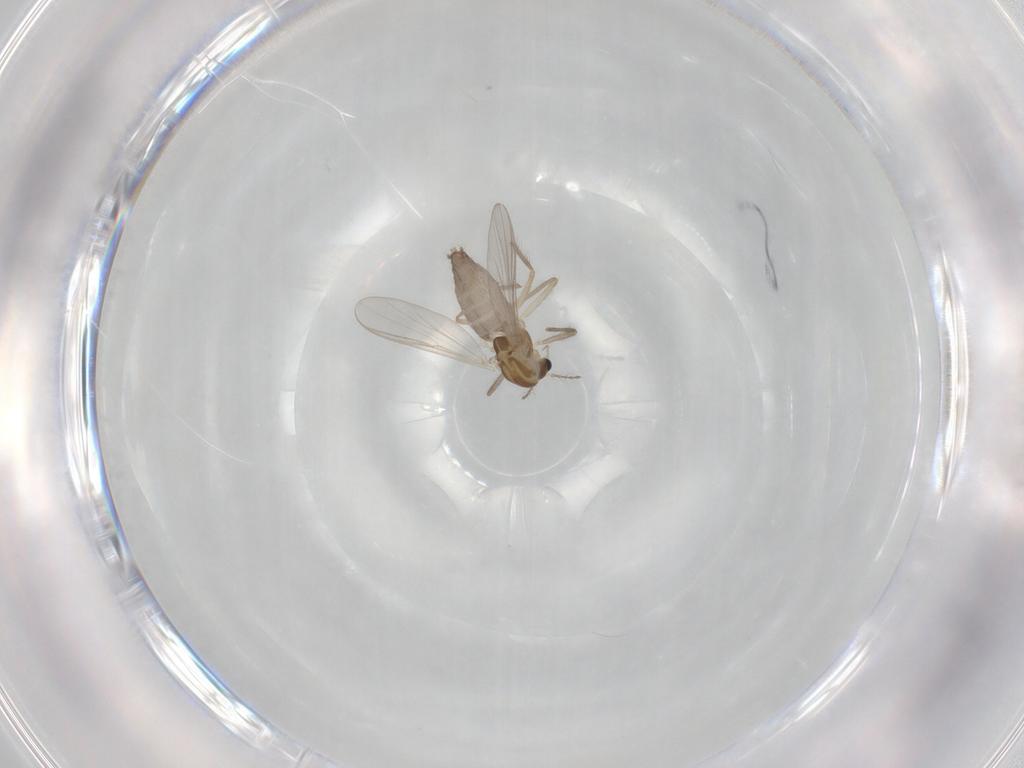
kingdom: Animalia
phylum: Arthropoda
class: Insecta
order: Diptera
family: Chironomidae
